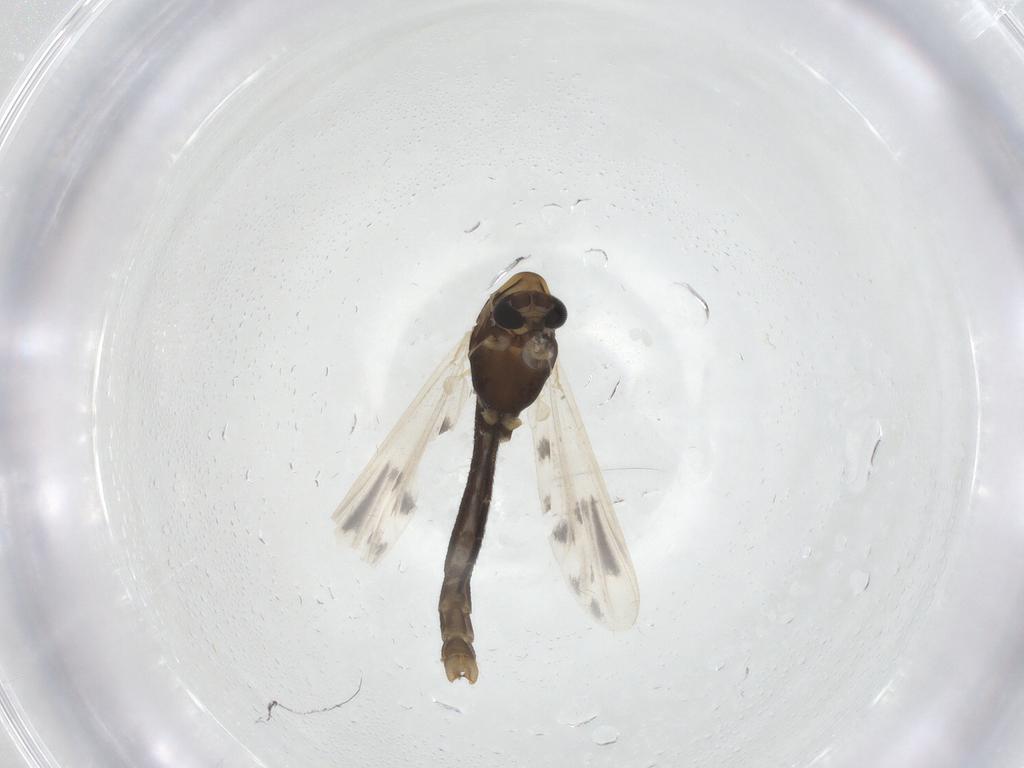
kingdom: Animalia
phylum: Arthropoda
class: Insecta
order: Diptera
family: Chironomidae
